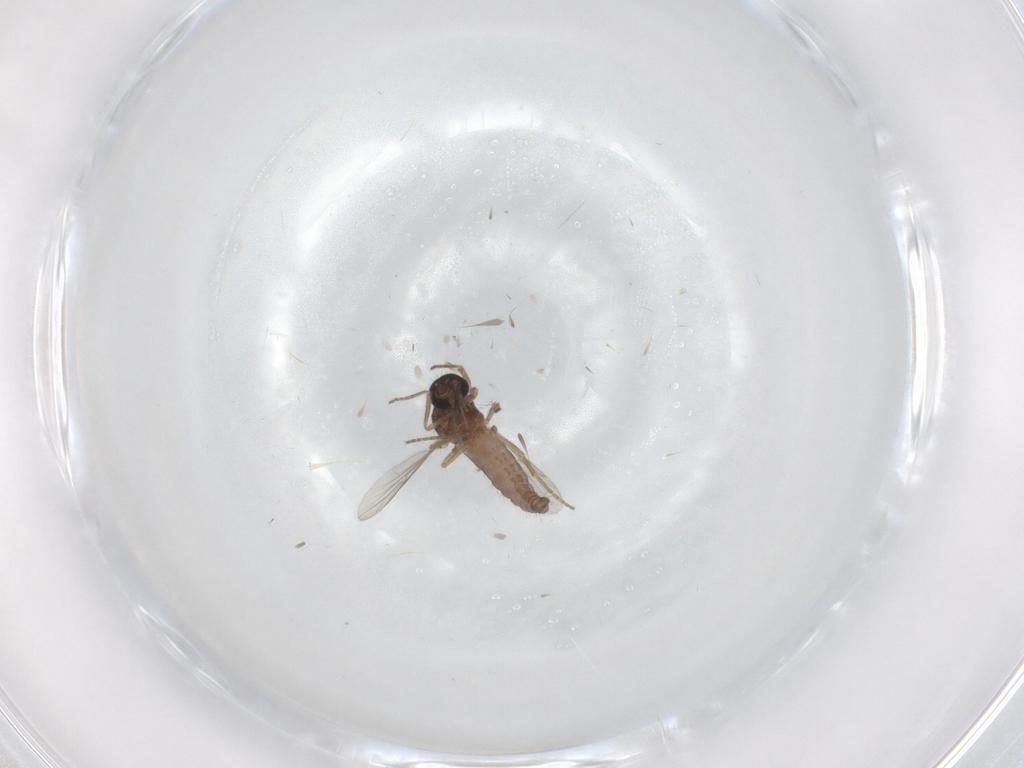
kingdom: Animalia
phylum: Arthropoda
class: Insecta
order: Diptera
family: Ceratopogonidae
